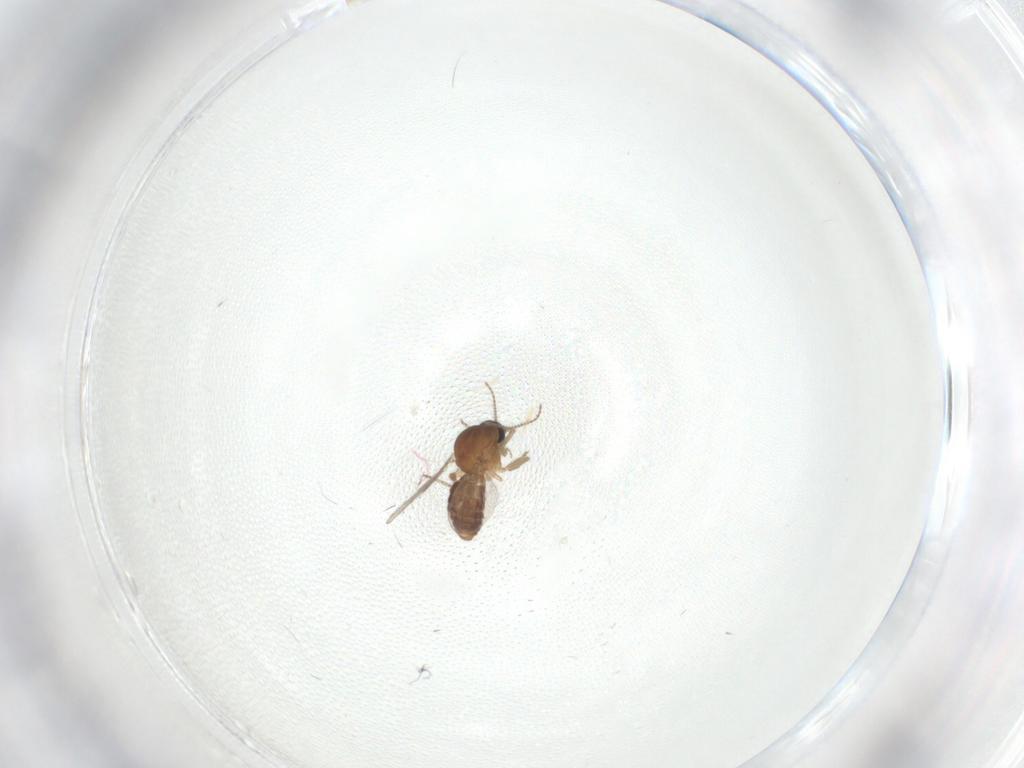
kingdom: Animalia
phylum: Arthropoda
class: Insecta
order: Diptera
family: Ceratopogonidae
